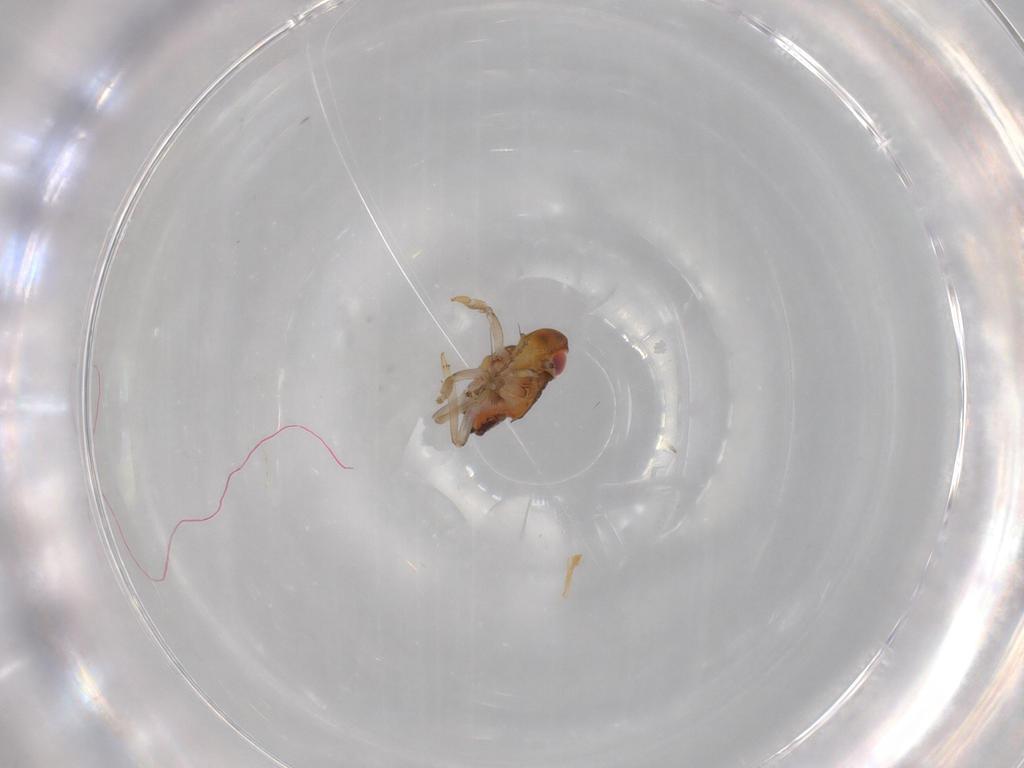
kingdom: Animalia
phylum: Arthropoda
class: Insecta
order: Hemiptera
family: Issidae
